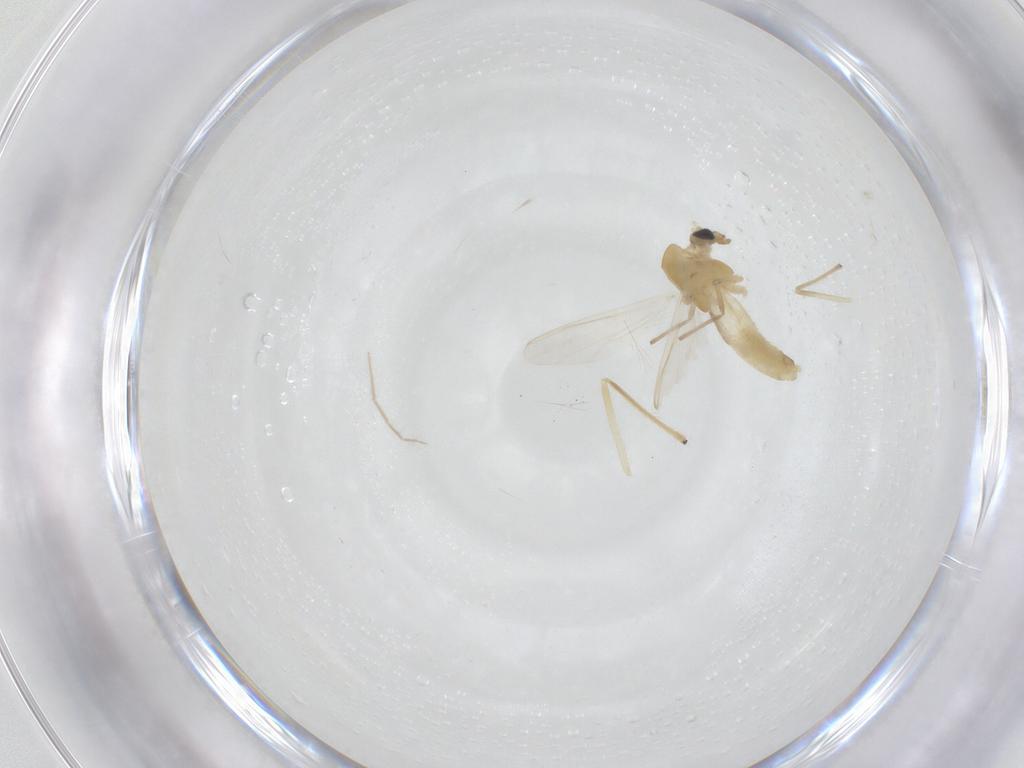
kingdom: Animalia
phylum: Arthropoda
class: Insecta
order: Diptera
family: Chironomidae
